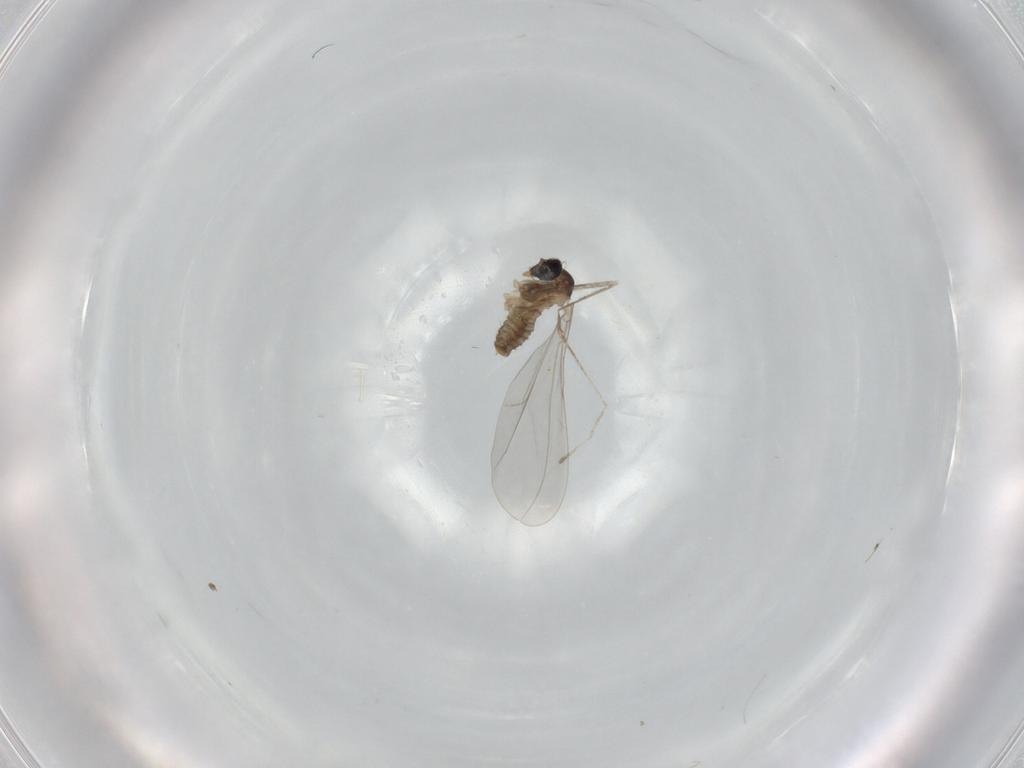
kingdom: Animalia
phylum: Arthropoda
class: Insecta
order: Diptera
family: Sciaridae
